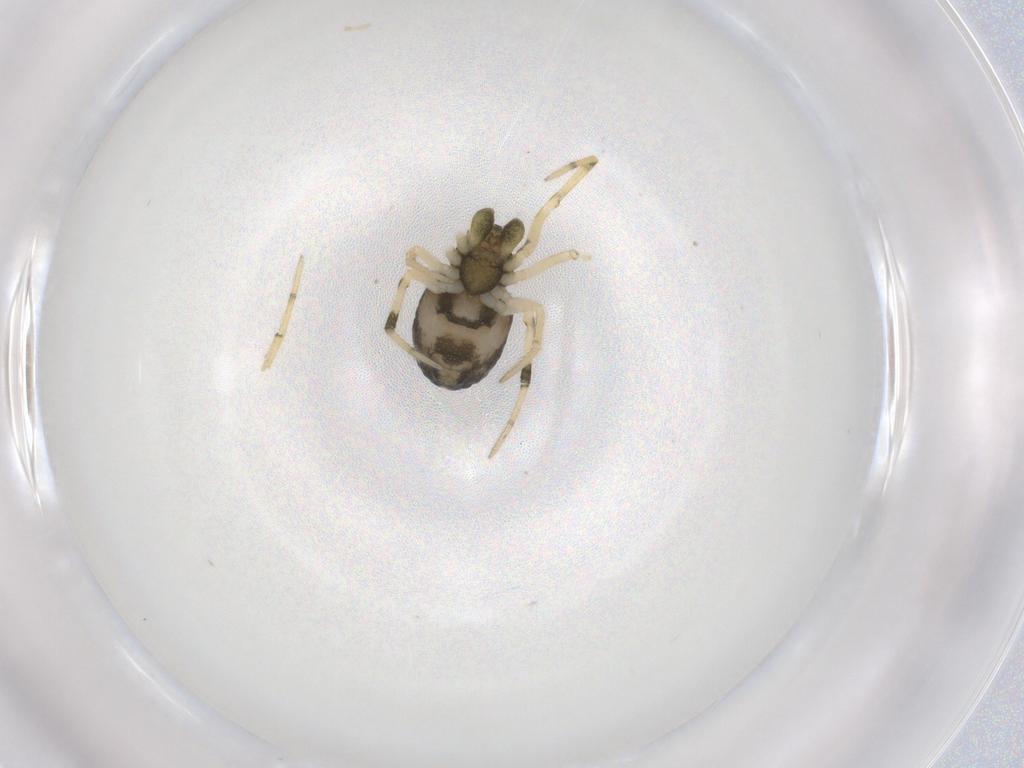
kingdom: Animalia
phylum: Arthropoda
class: Arachnida
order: Araneae
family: Theridiidae
